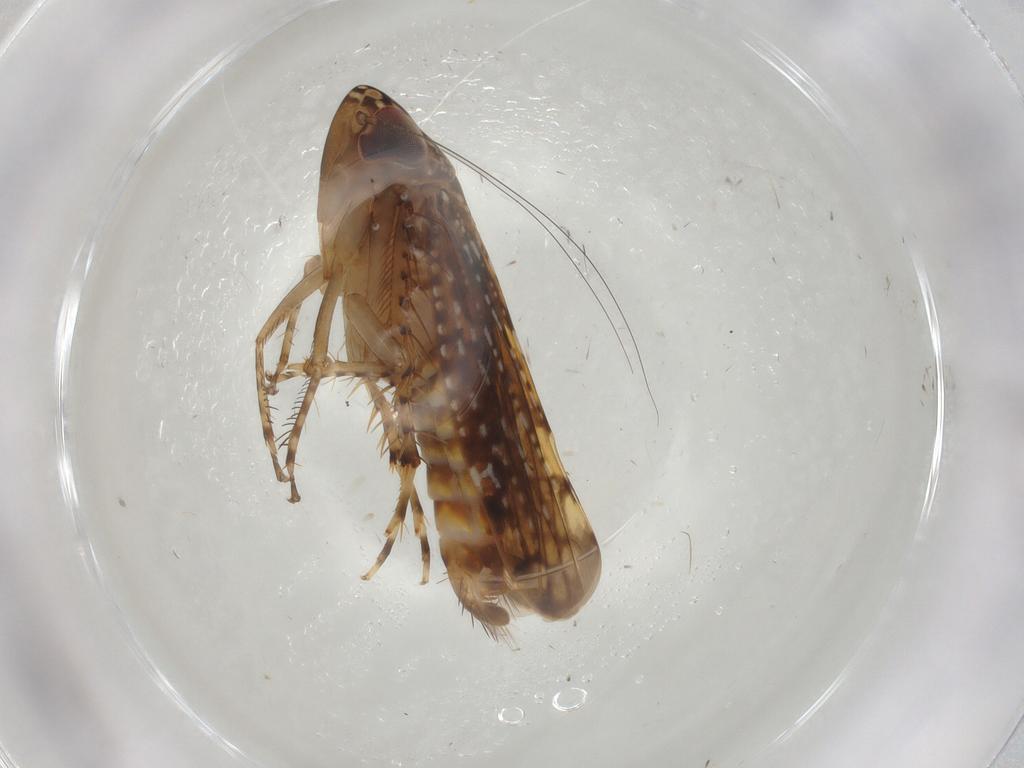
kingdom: Animalia
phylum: Arthropoda
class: Insecta
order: Hemiptera
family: Cicadellidae
